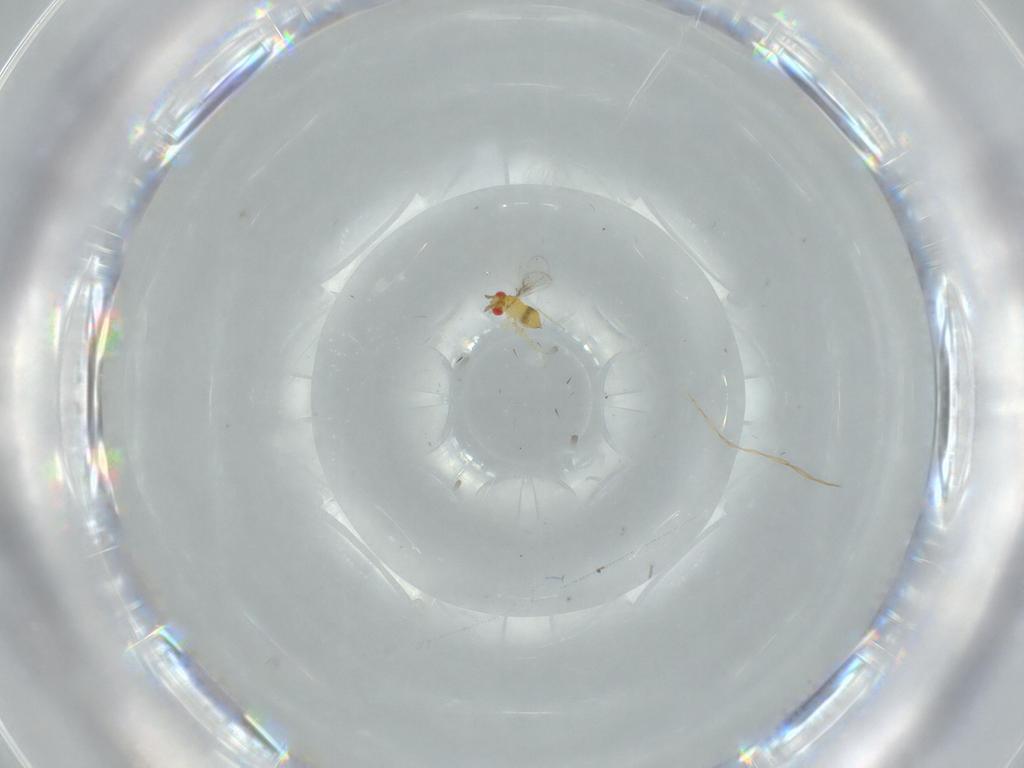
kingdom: Animalia
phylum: Arthropoda
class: Insecta
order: Hymenoptera
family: Trichogrammatidae
